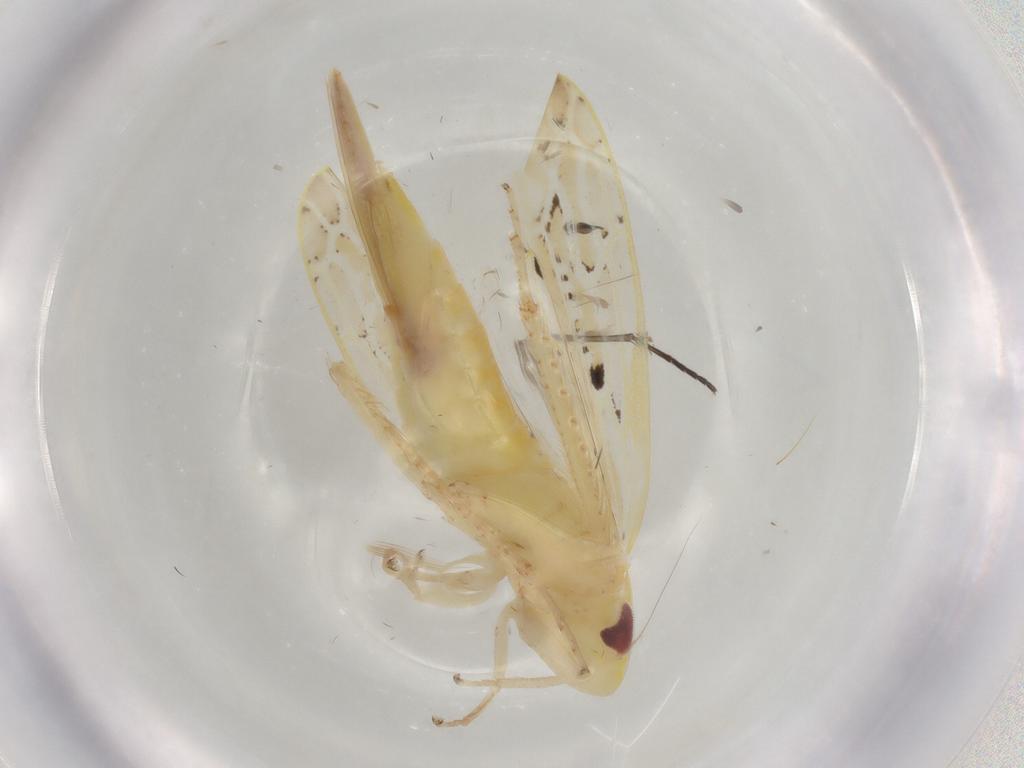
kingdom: Animalia
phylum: Arthropoda
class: Insecta
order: Hemiptera
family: Cicadellidae
